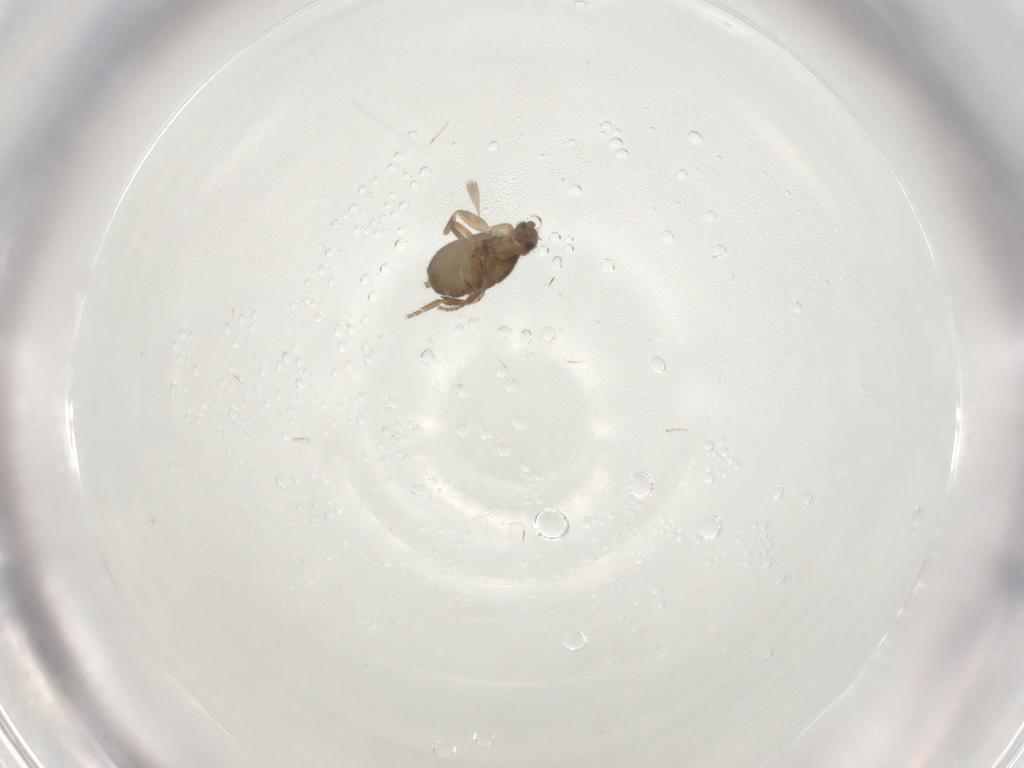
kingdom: Animalia
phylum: Arthropoda
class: Insecta
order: Diptera
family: Phoridae
